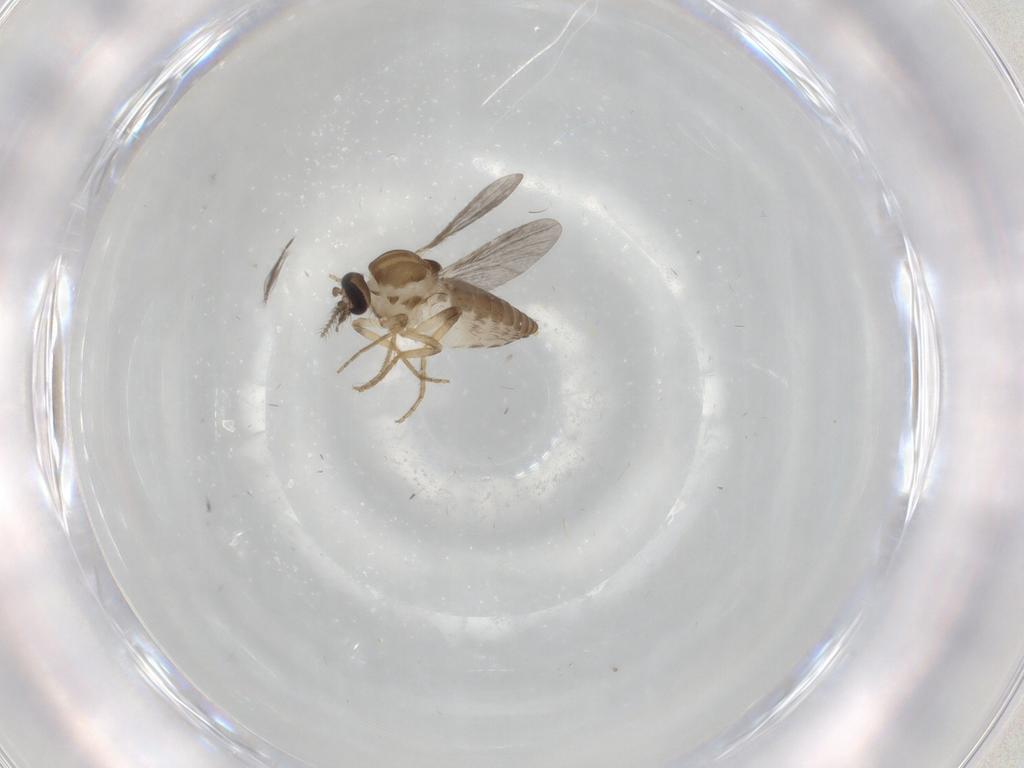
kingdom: Animalia
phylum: Arthropoda
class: Insecta
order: Diptera
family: Ceratopogonidae
